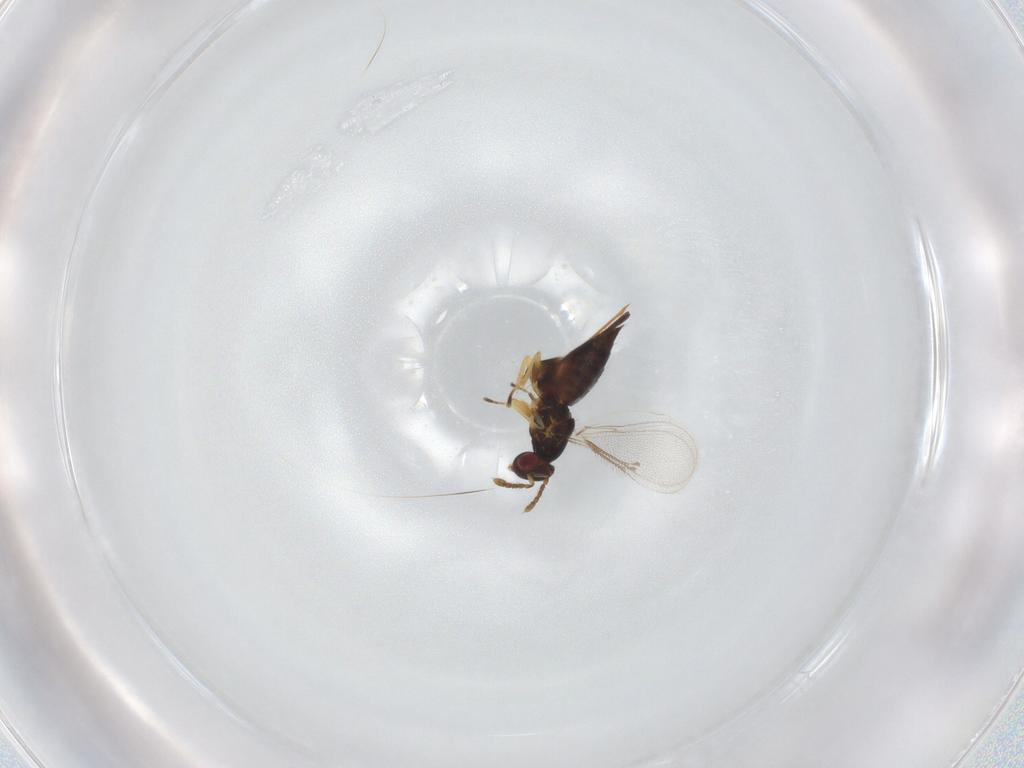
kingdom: Animalia
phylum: Arthropoda
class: Insecta
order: Hymenoptera
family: Eulophidae
